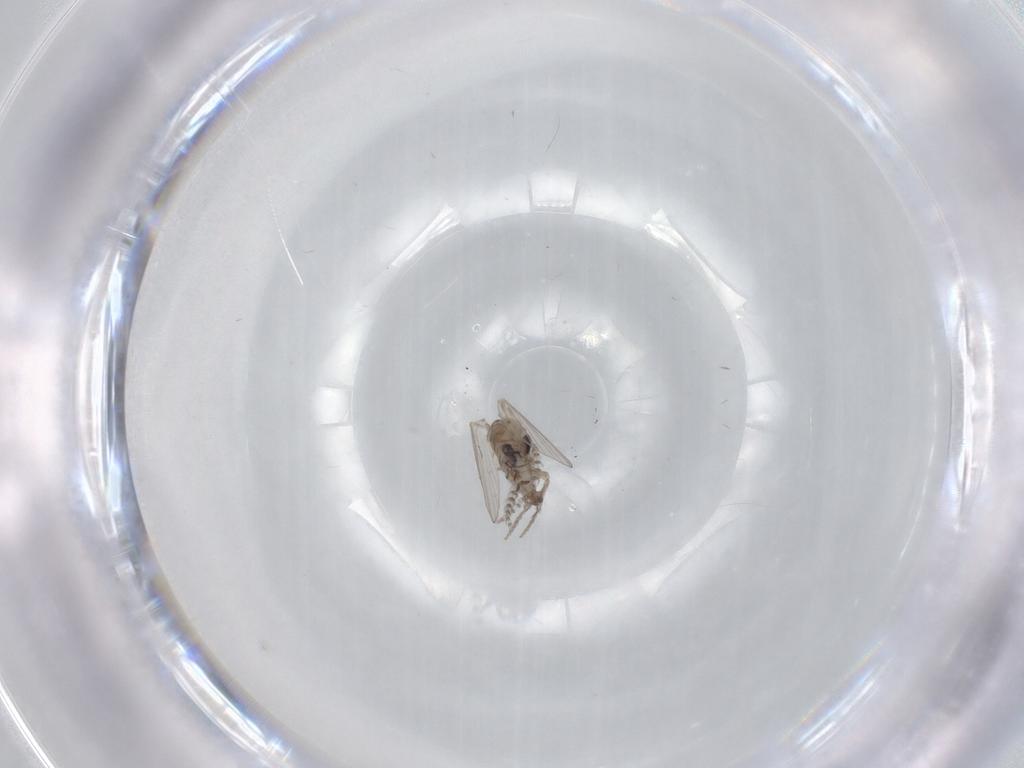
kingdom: Animalia
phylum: Arthropoda
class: Insecta
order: Diptera
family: Psychodidae
